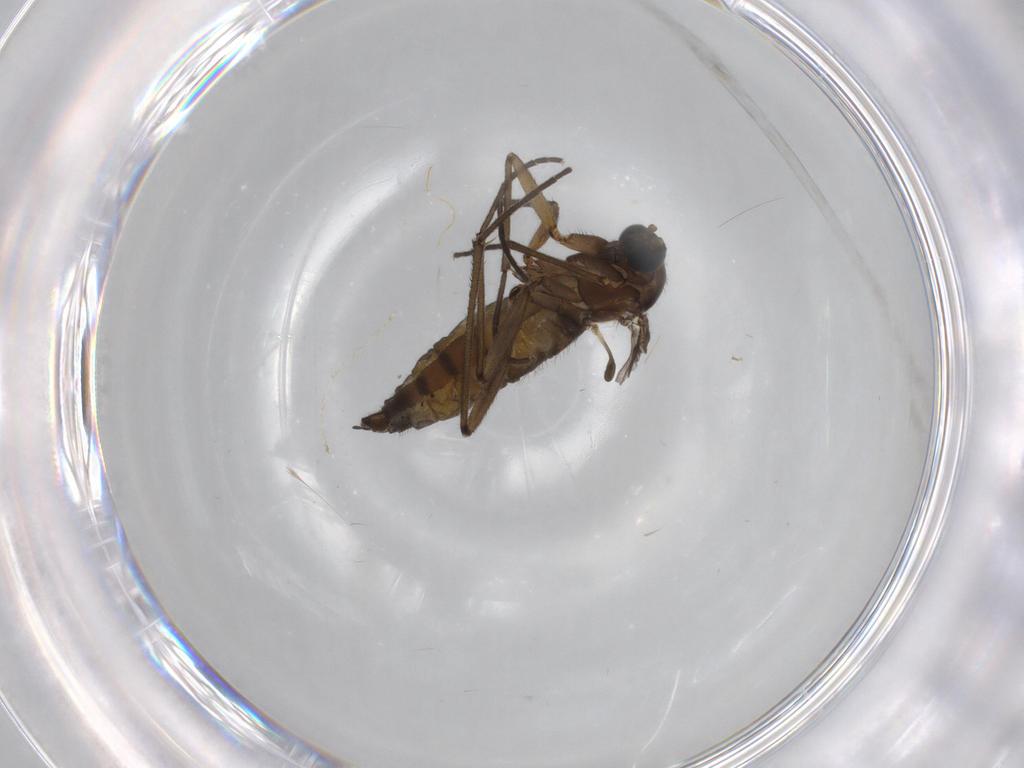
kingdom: Animalia
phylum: Arthropoda
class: Insecta
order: Diptera
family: Sciaridae
